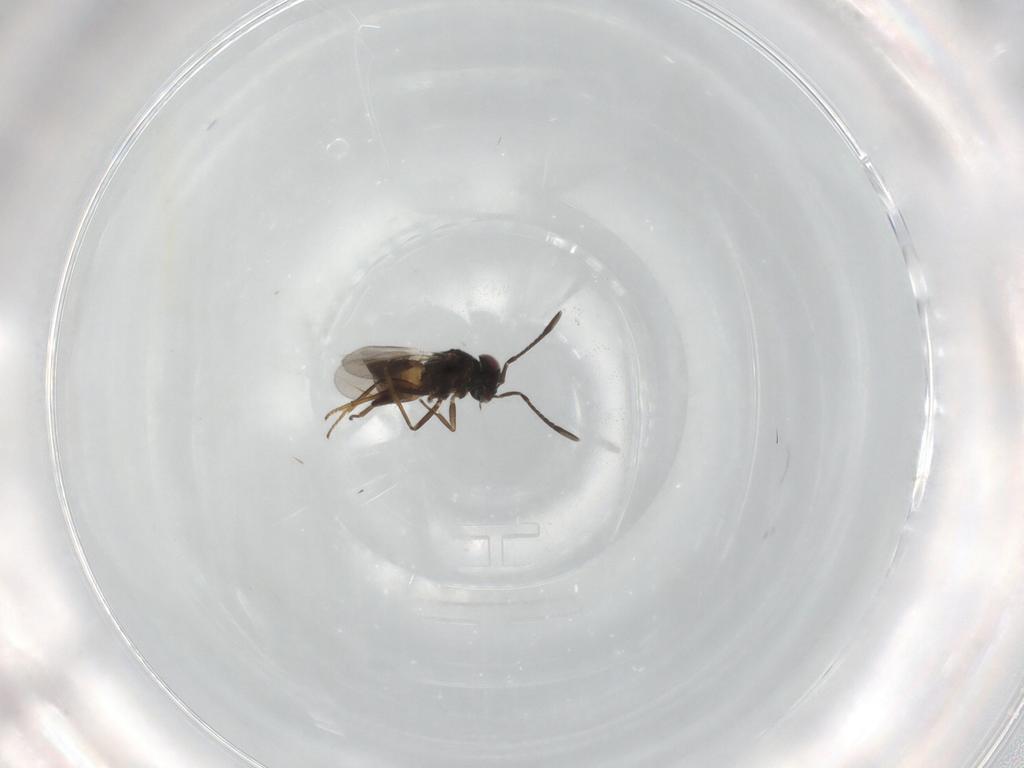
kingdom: Animalia
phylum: Arthropoda
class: Insecta
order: Hymenoptera
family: Encyrtidae
